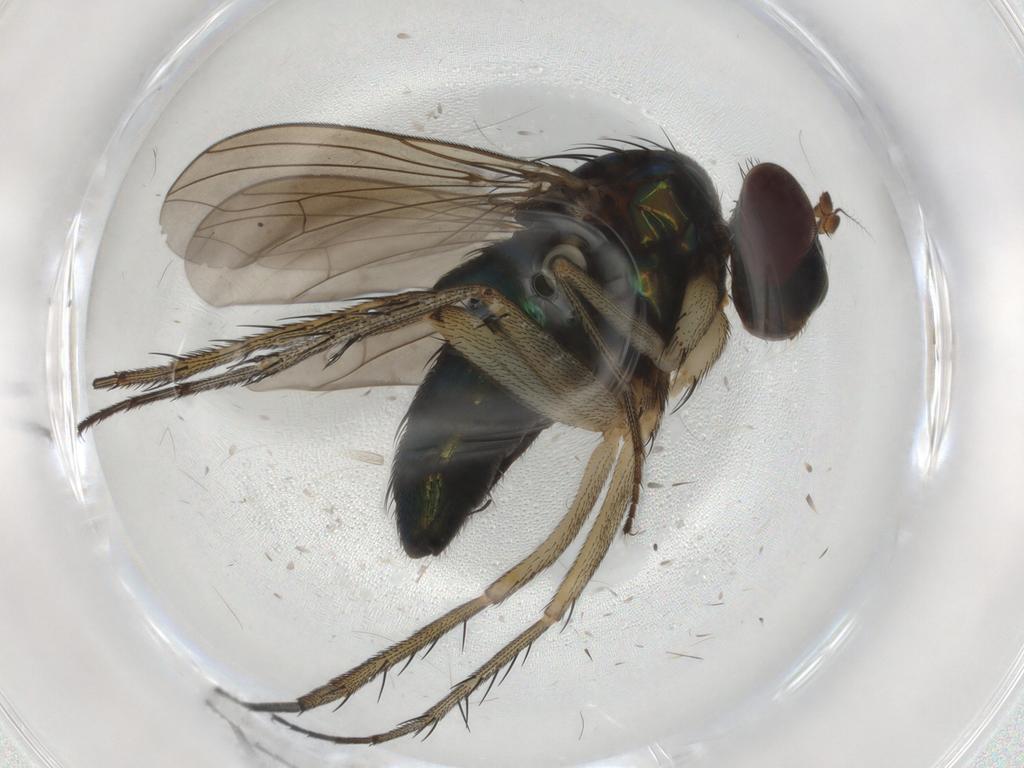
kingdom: Animalia
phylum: Arthropoda
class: Insecta
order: Diptera
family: Dolichopodidae
